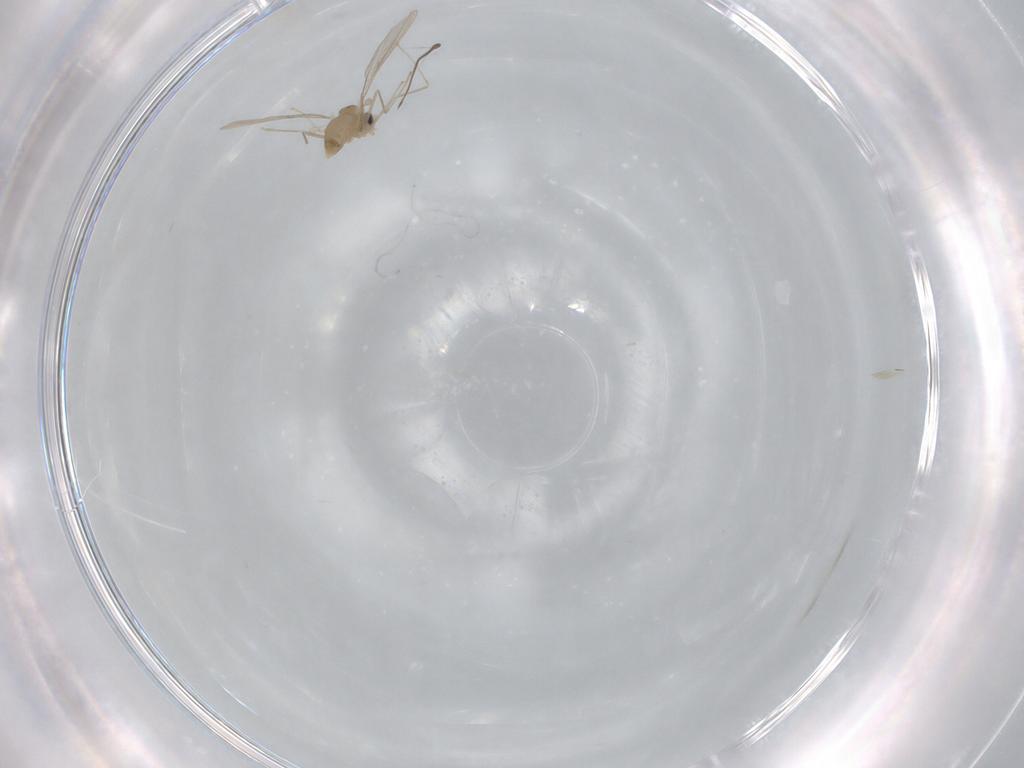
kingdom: Animalia
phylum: Arthropoda
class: Insecta
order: Diptera
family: Cecidomyiidae
